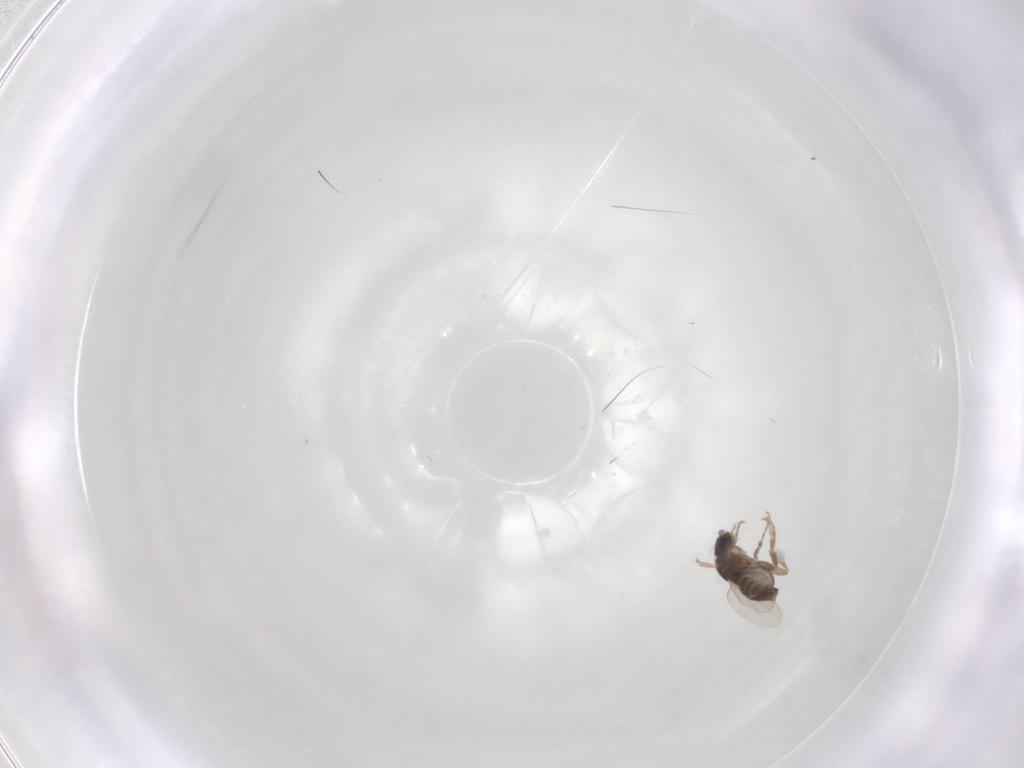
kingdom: Animalia
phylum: Arthropoda
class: Insecta
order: Diptera
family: Phoridae
